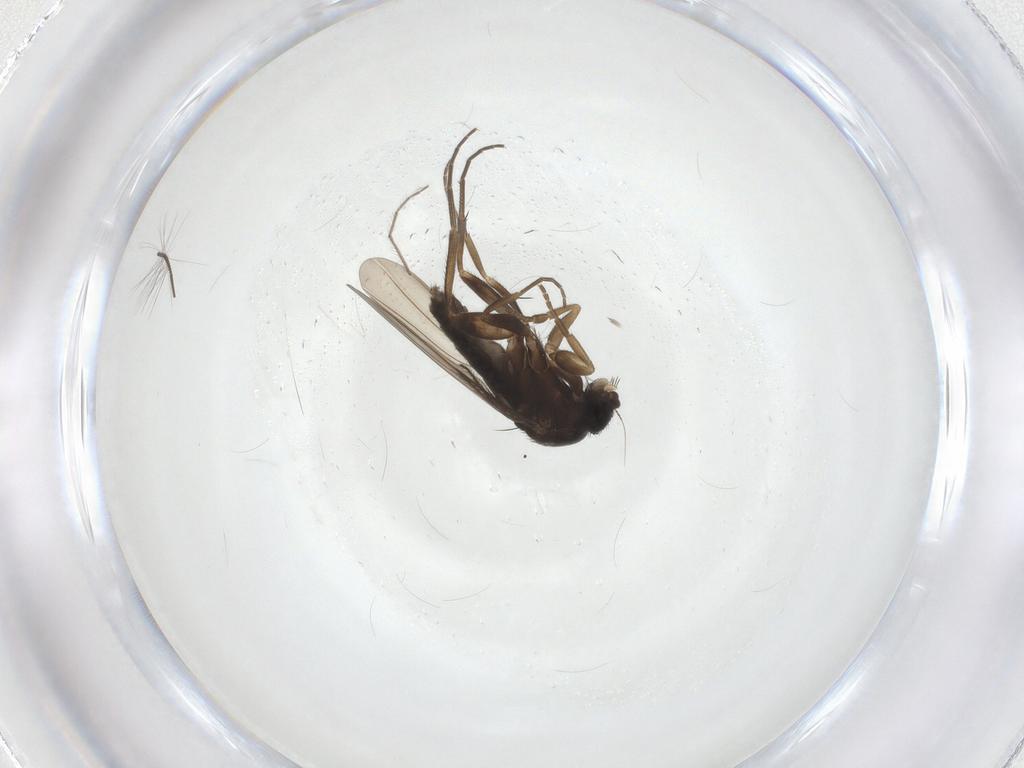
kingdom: Animalia
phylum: Arthropoda
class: Insecta
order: Diptera
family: Phoridae
